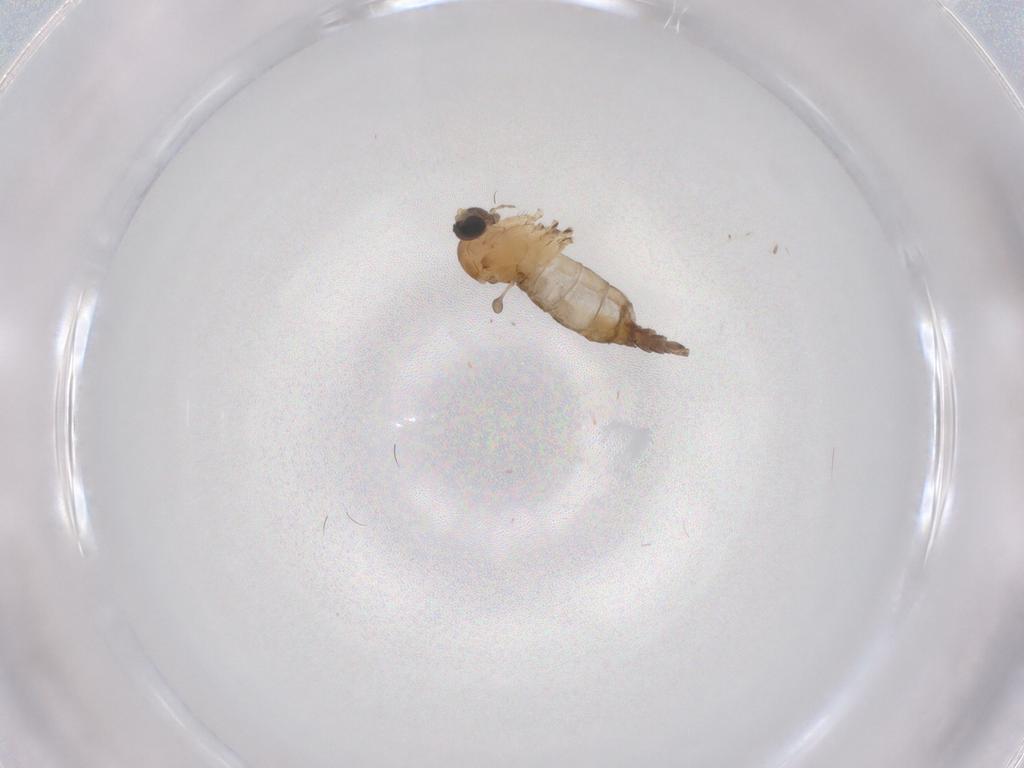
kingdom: Animalia
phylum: Arthropoda
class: Insecta
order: Diptera
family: Sciaridae
